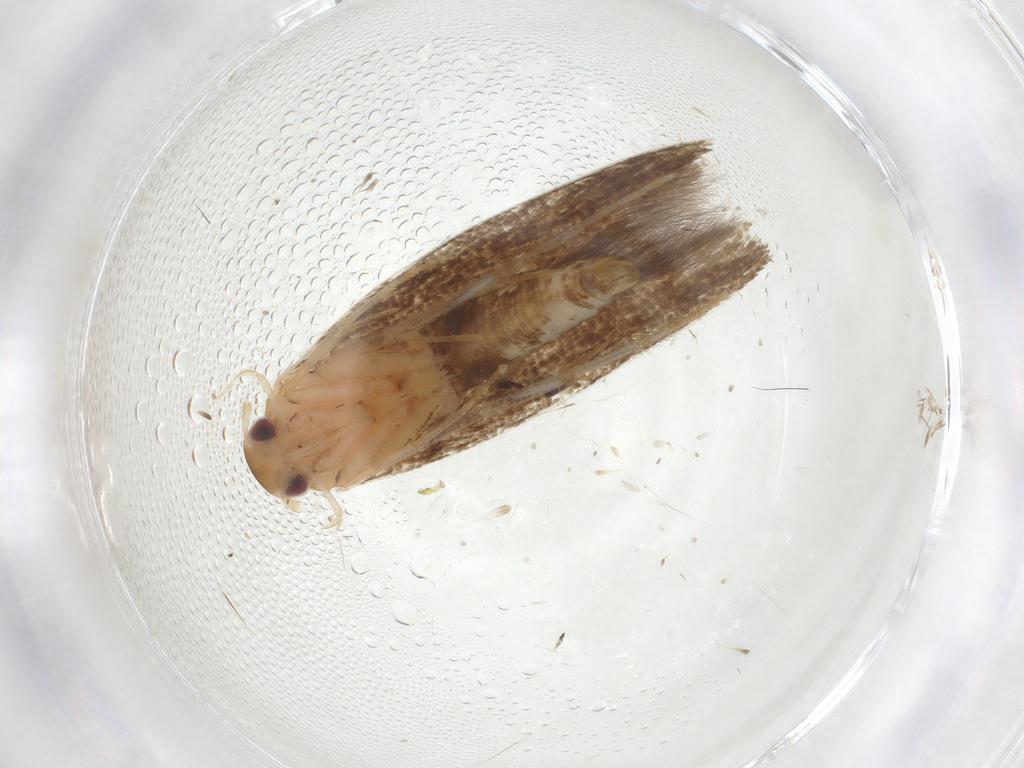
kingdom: Animalia
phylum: Arthropoda
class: Insecta
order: Lepidoptera
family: Momphidae
